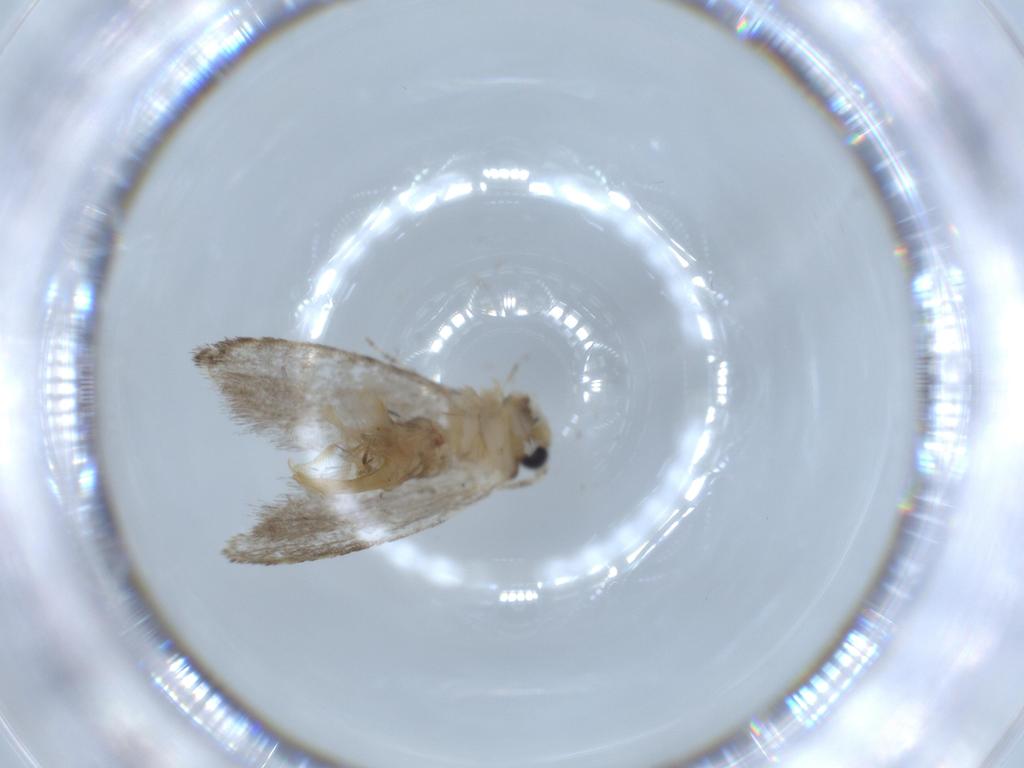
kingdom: Animalia
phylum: Arthropoda
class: Insecta
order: Lepidoptera
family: Tineidae
